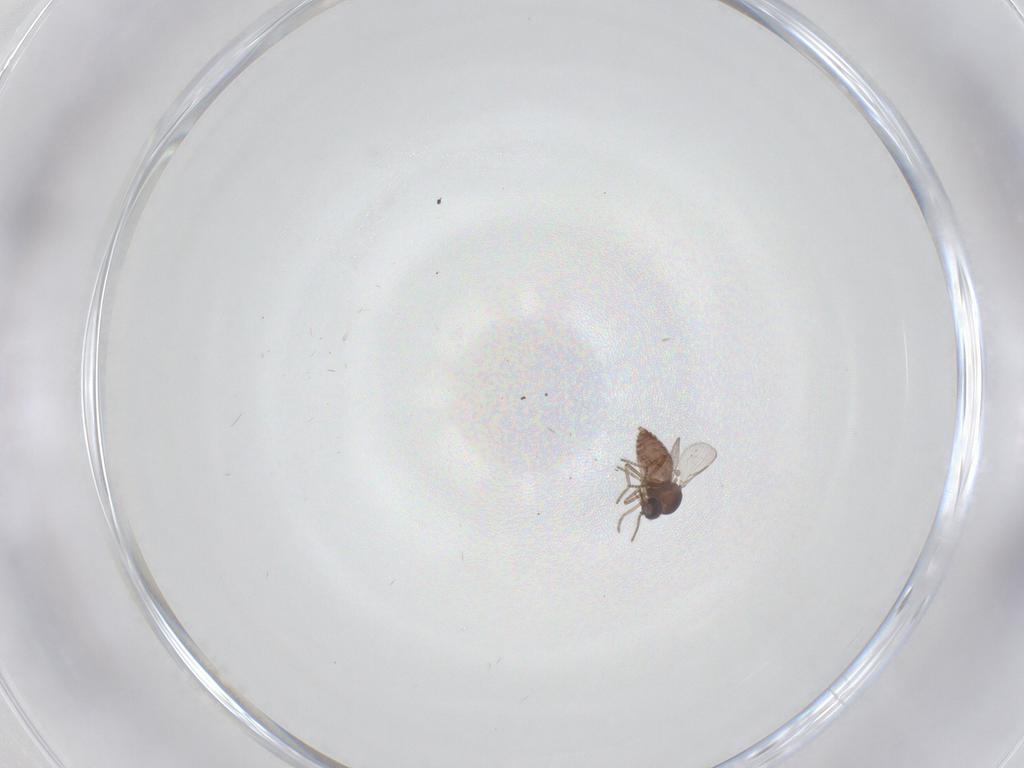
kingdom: Animalia
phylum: Arthropoda
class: Insecta
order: Diptera
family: Ceratopogonidae
